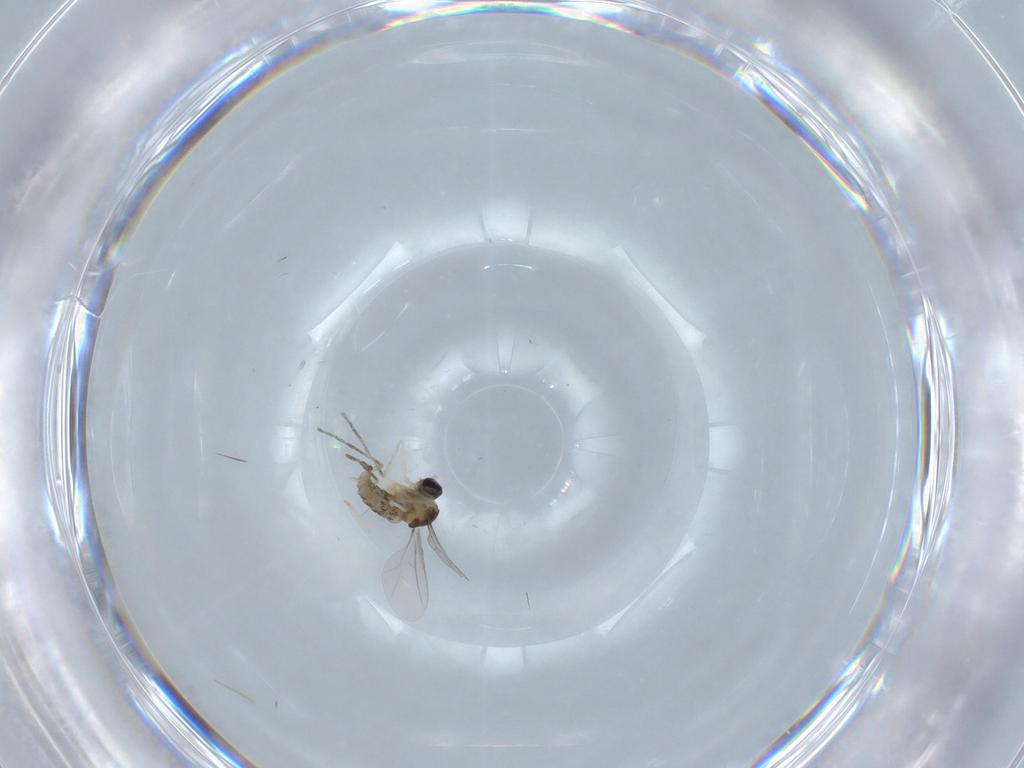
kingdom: Animalia
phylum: Arthropoda
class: Insecta
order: Diptera
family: Cecidomyiidae
